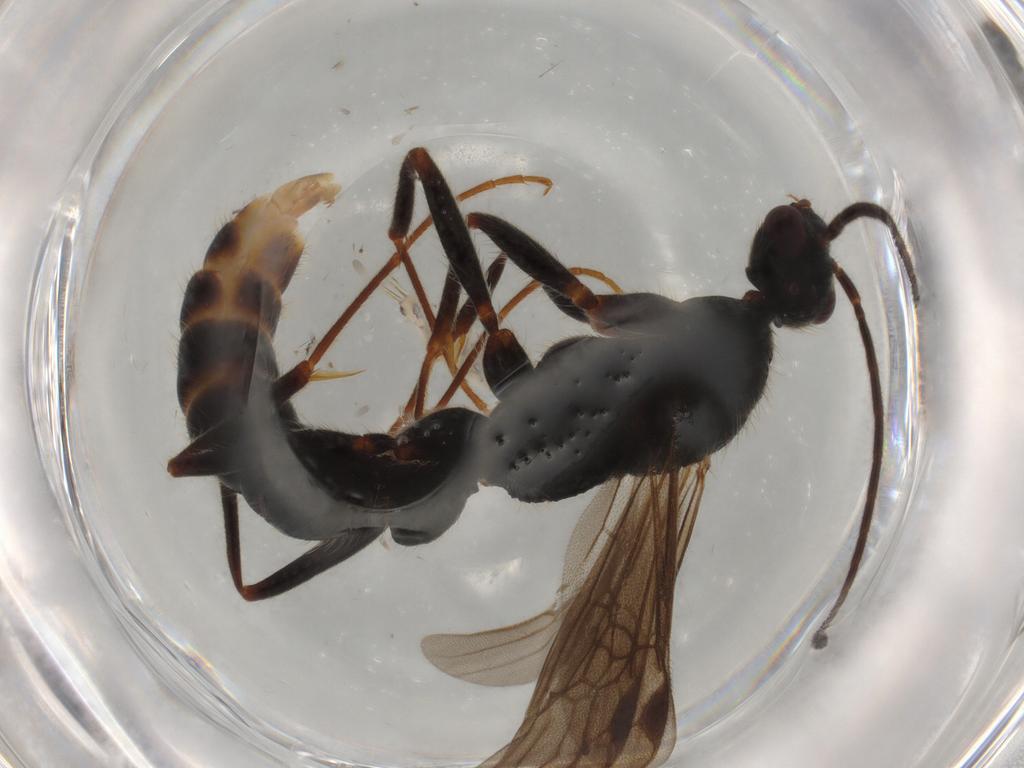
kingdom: Animalia
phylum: Arthropoda
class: Insecta
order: Hymenoptera
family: Formicidae
